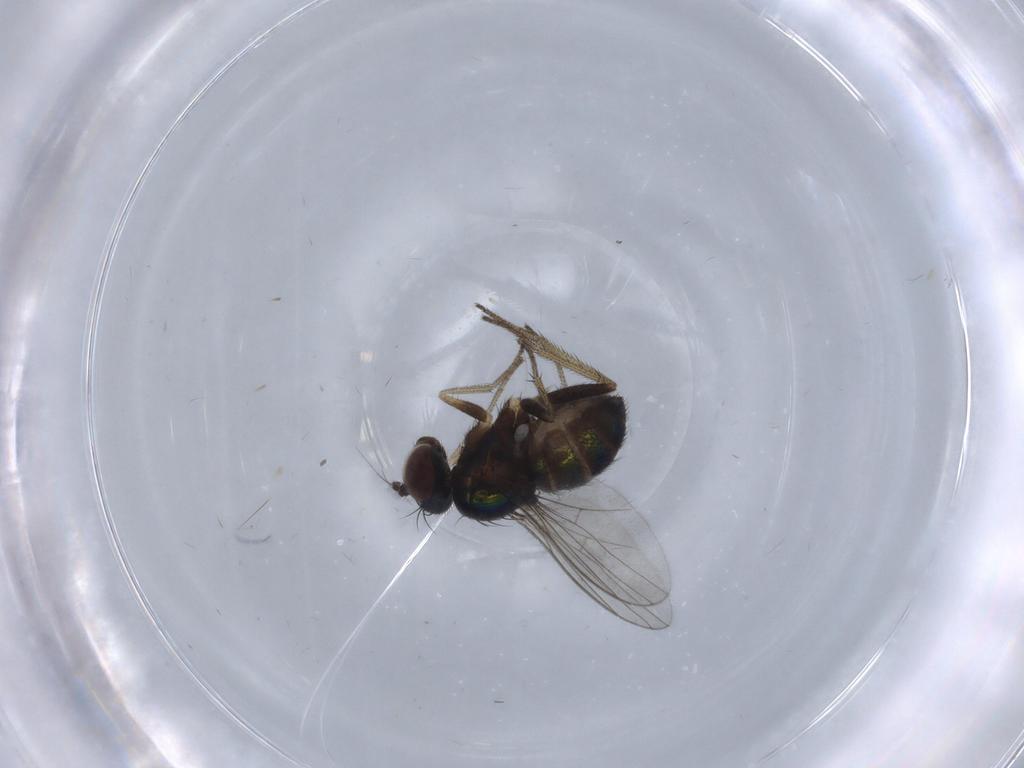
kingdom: Animalia
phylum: Arthropoda
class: Insecta
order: Diptera
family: Dolichopodidae
